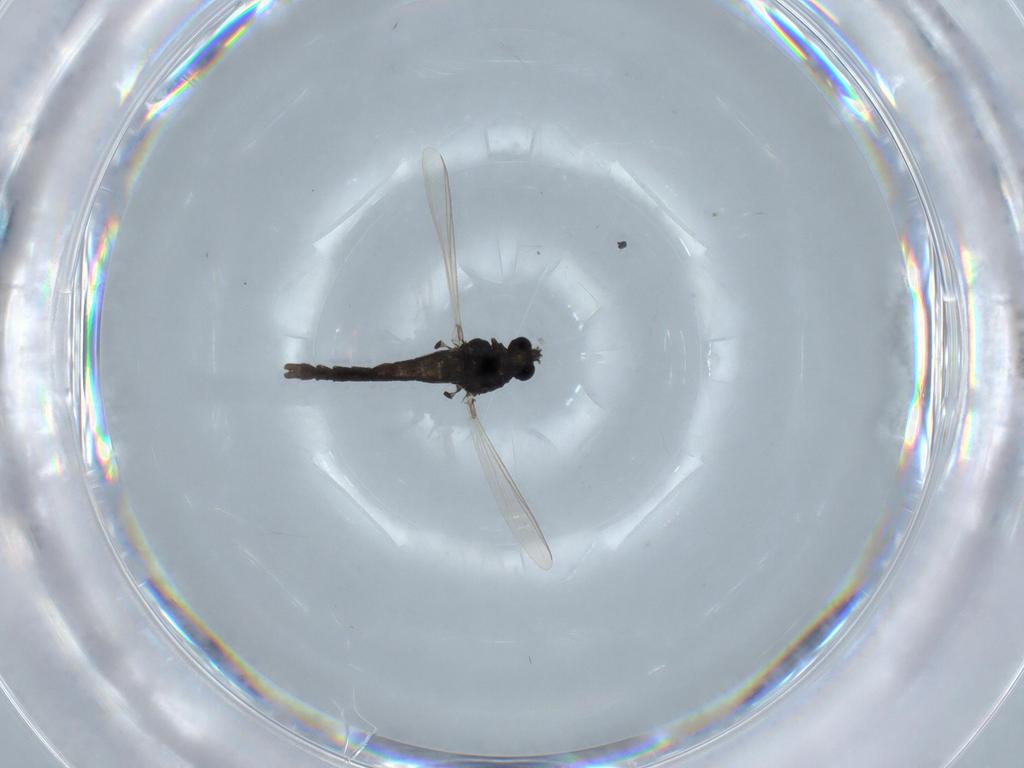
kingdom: Animalia
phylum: Arthropoda
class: Insecta
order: Diptera
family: Chironomidae
